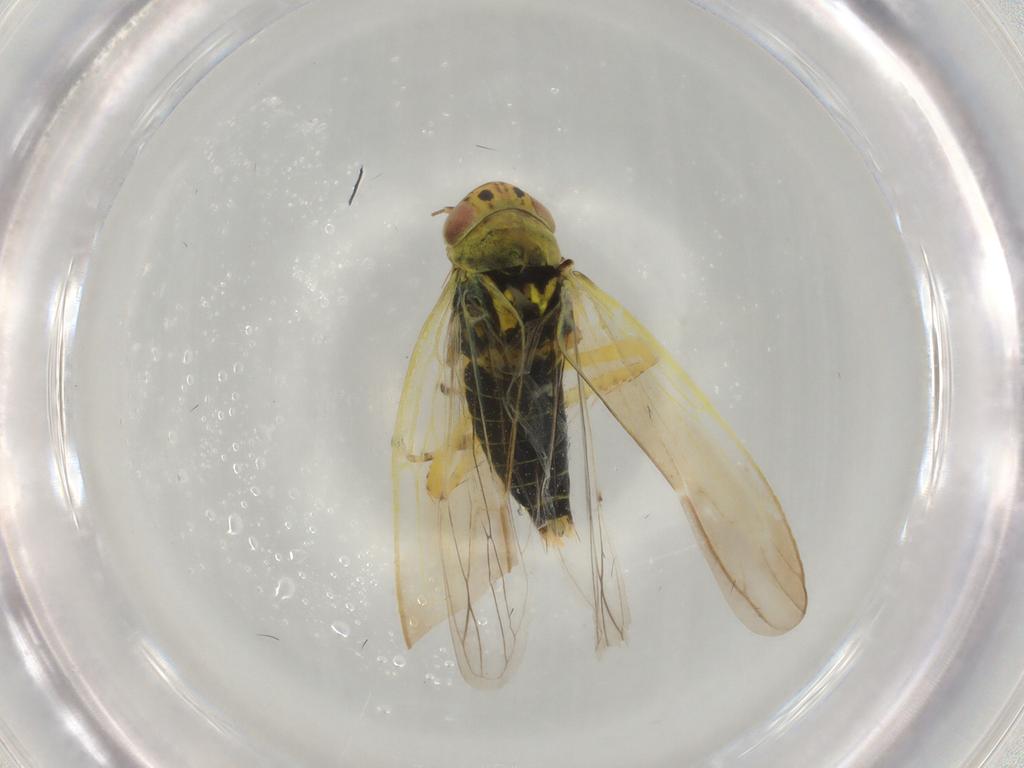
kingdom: Animalia
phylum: Arthropoda
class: Insecta
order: Hemiptera
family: Cicadellidae
